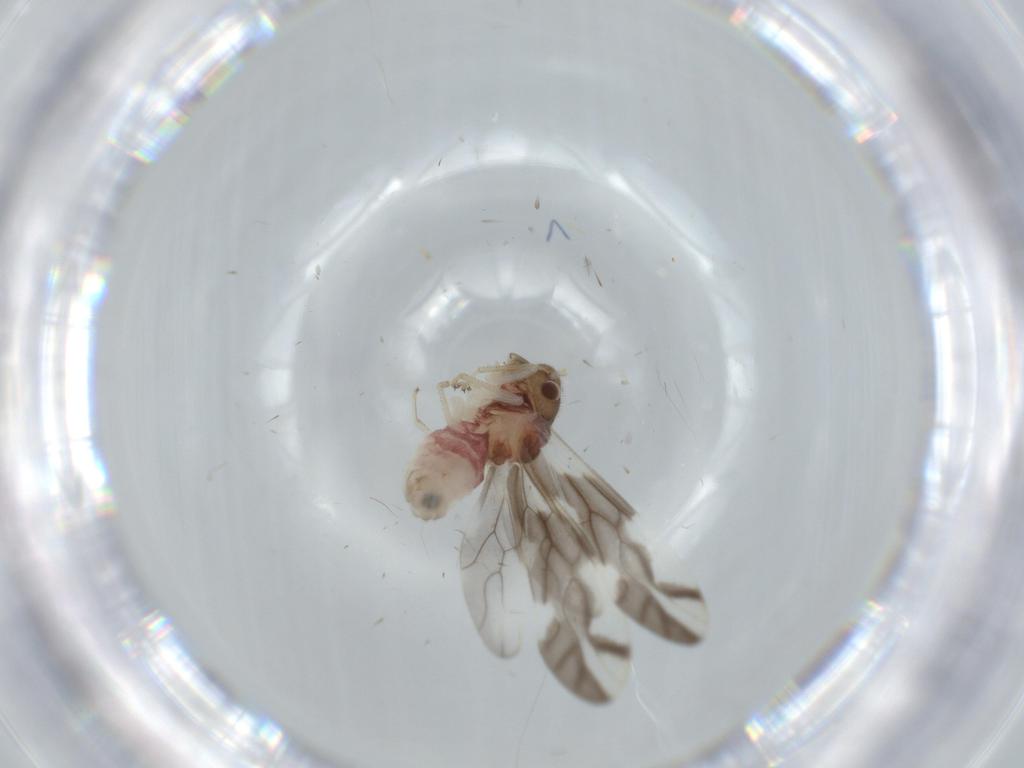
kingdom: Animalia
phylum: Arthropoda
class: Insecta
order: Psocodea
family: Caeciliusidae
